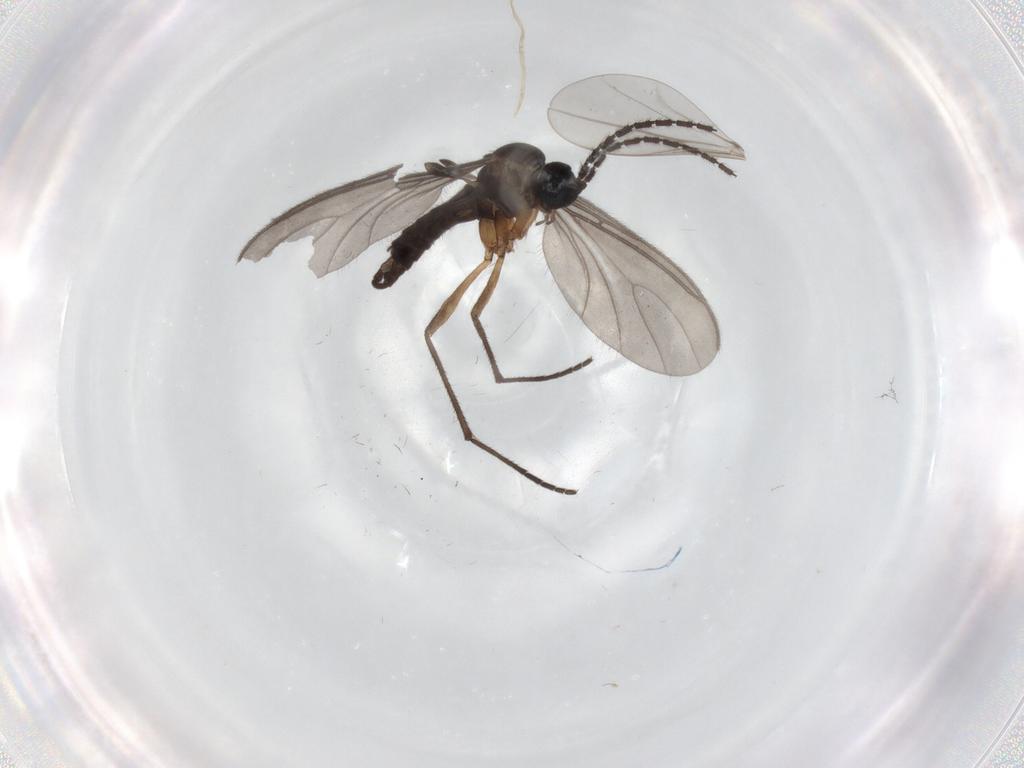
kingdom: Animalia
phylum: Arthropoda
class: Insecta
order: Diptera
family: Sciaridae
